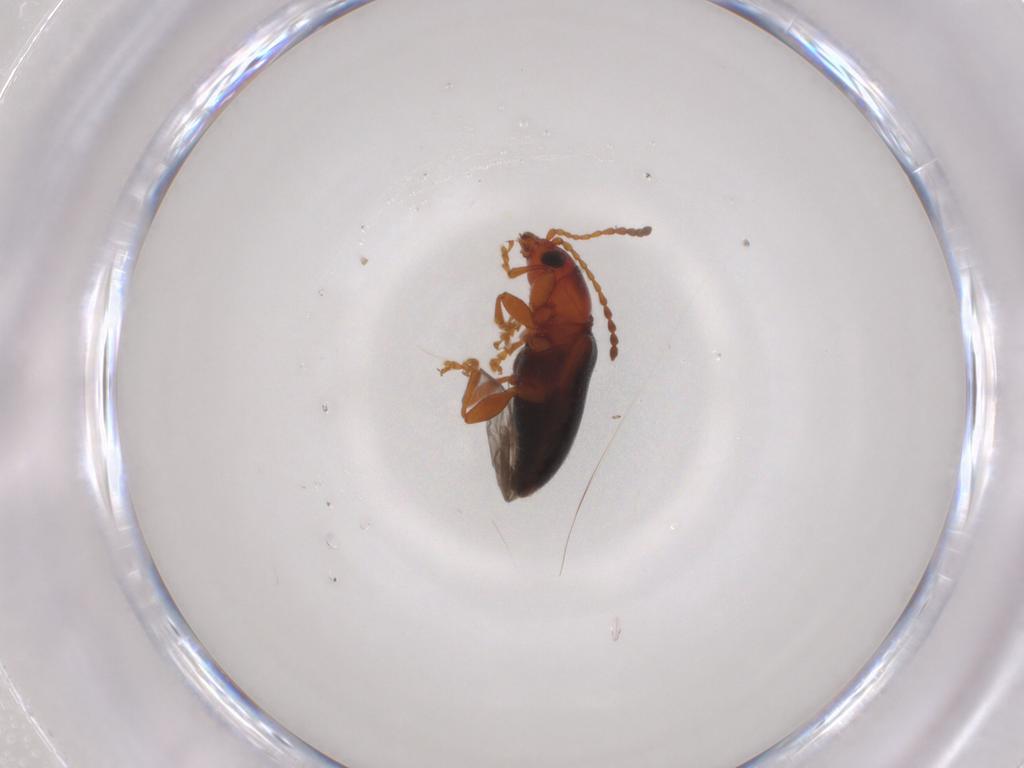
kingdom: Animalia
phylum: Arthropoda
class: Insecta
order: Coleoptera
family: Chrysomelidae
